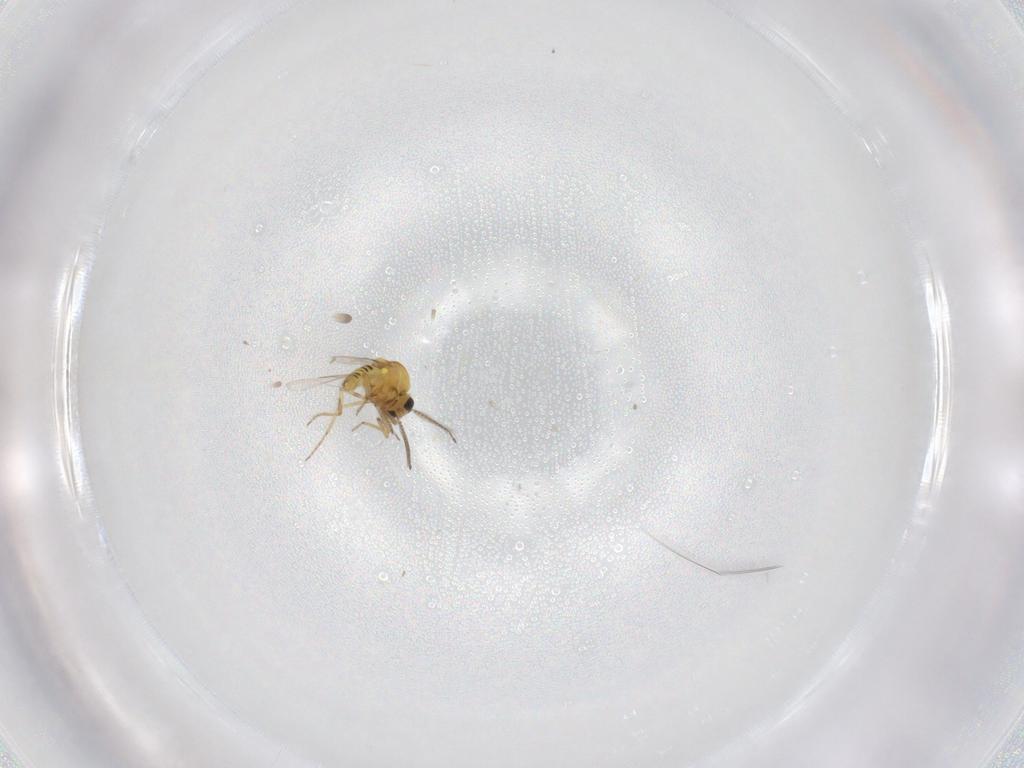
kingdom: Animalia
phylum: Arthropoda
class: Insecta
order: Diptera
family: Ceratopogonidae
